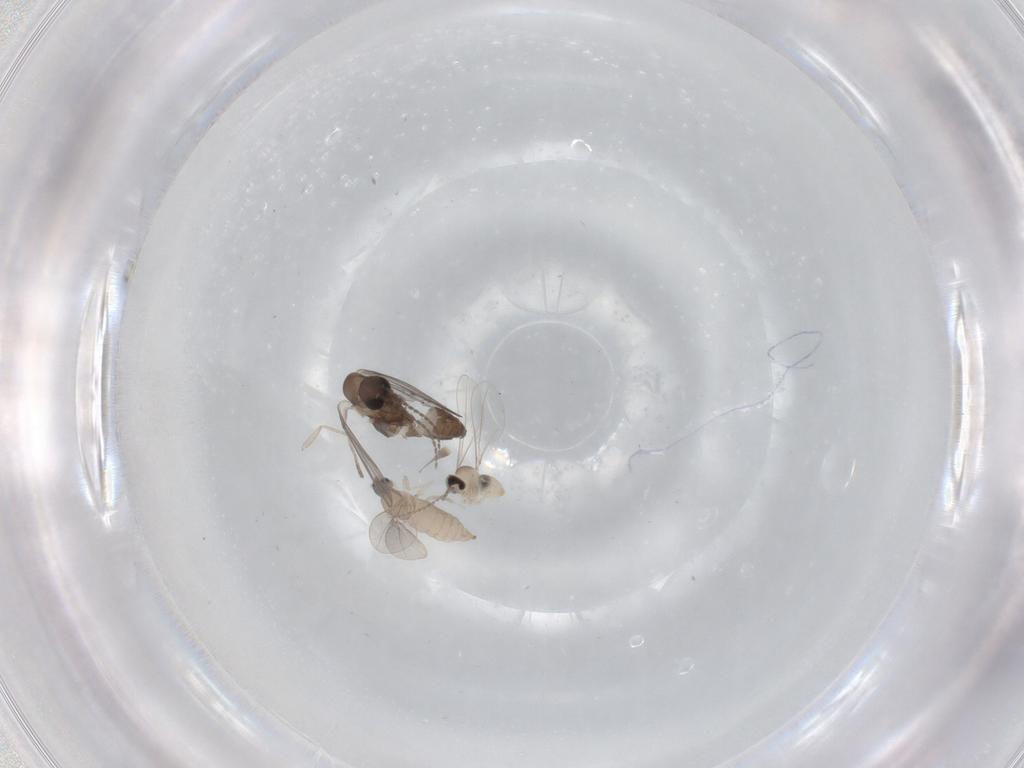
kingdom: Animalia
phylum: Arthropoda
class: Insecta
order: Diptera
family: Cecidomyiidae
